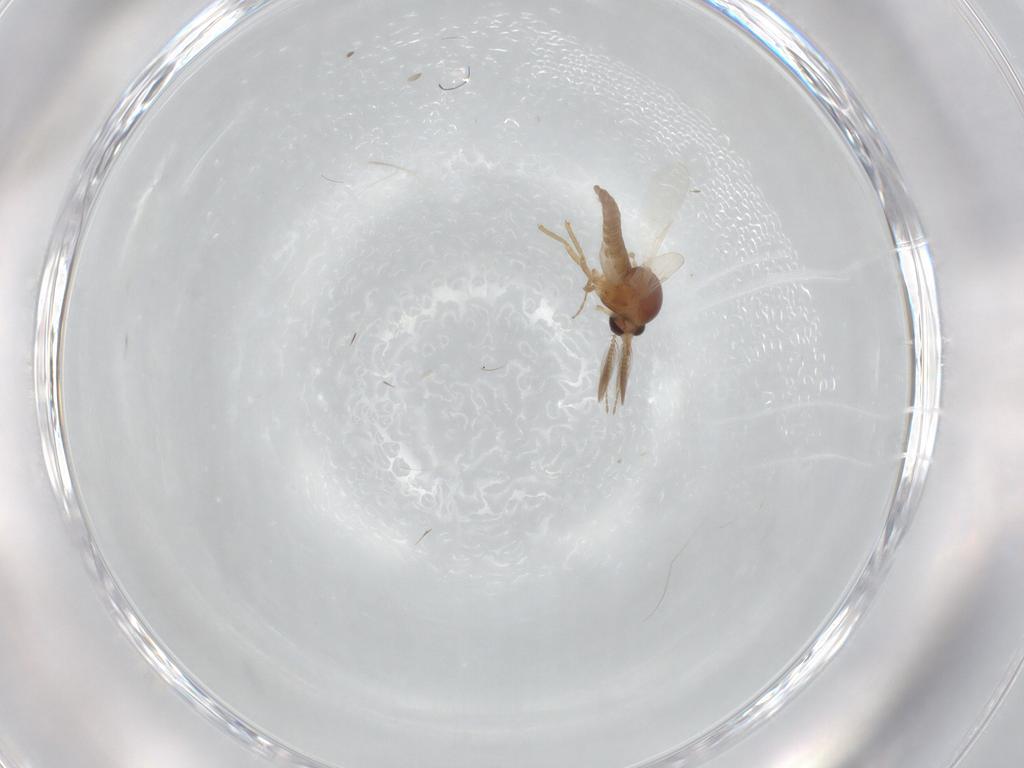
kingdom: Animalia
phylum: Arthropoda
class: Insecta
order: Diptera
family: Ceratopogonidae
